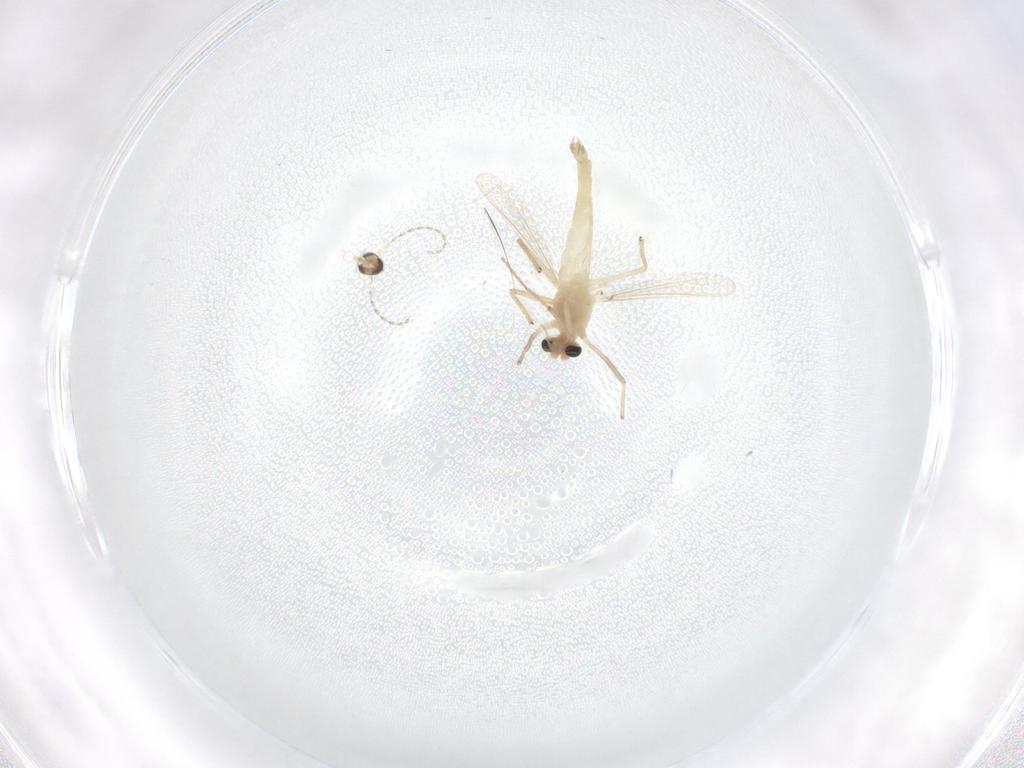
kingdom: Animalia
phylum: Arthropoda
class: Insecta
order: Diptera
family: Chironomidae
